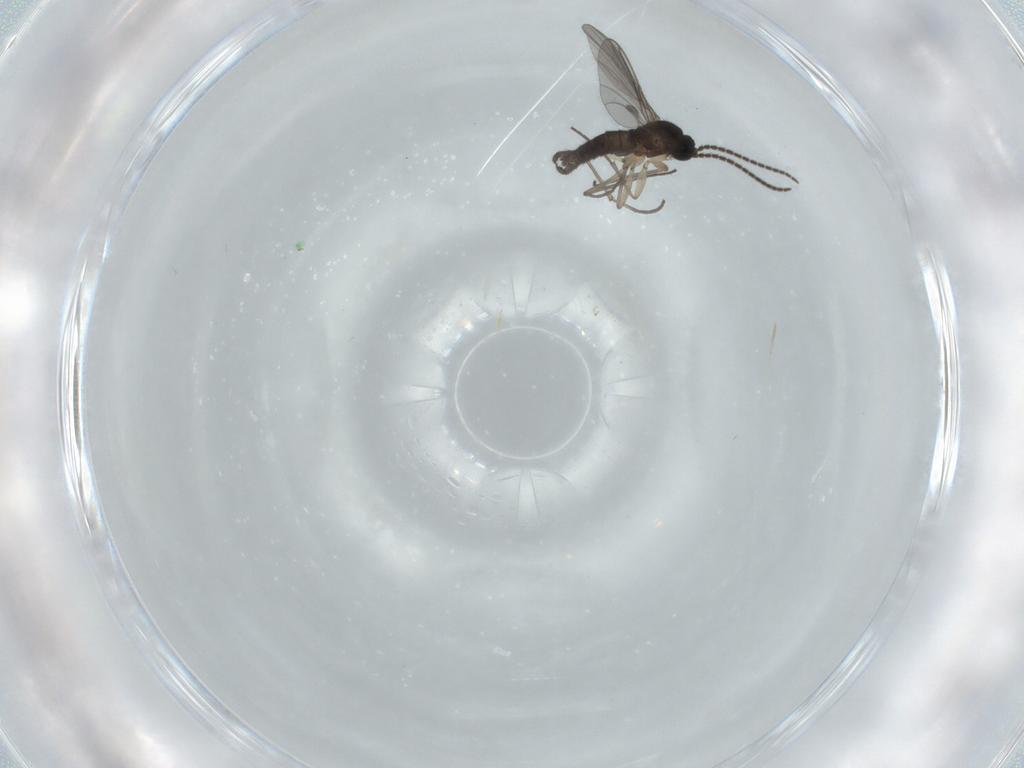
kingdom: Animalia
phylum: Arthropoda
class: Insecta
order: Diptera
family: Sciaridae
